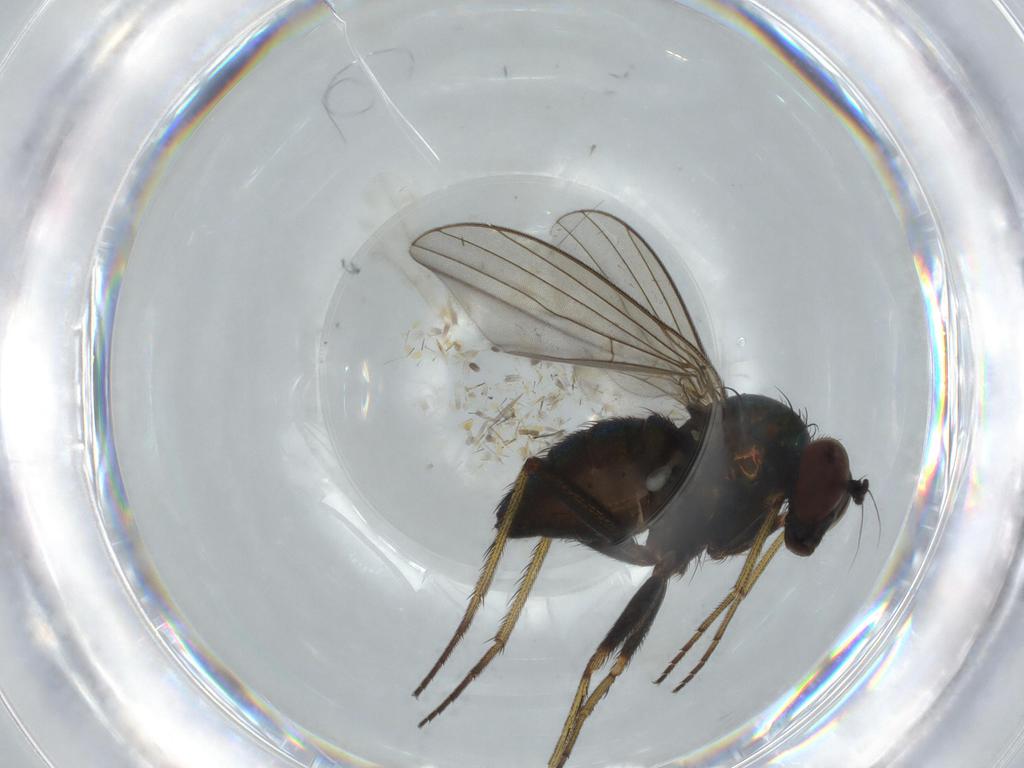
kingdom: Animalia
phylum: Arthropoda
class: Insecta
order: Diptera
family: Dolichopodidae
